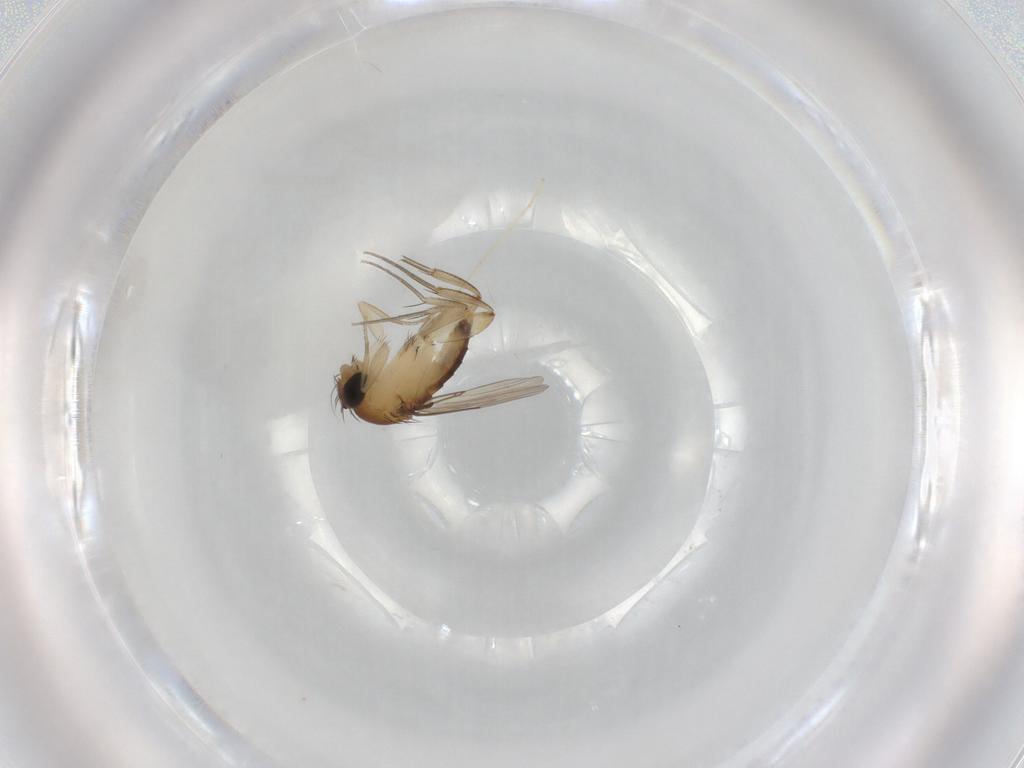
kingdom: Animalia
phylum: Arthropoda
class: Insecta
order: Diptera
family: Phoridae
